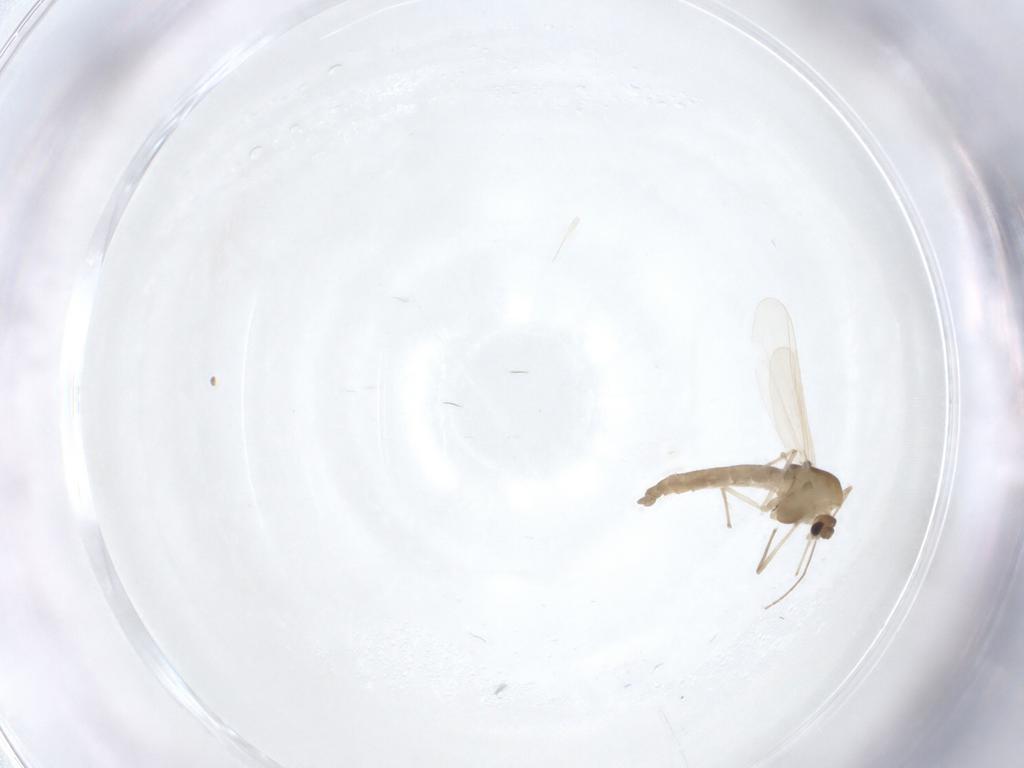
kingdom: Animalia
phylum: Arthropoda
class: Insecta
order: Diptera
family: Chironomidae
